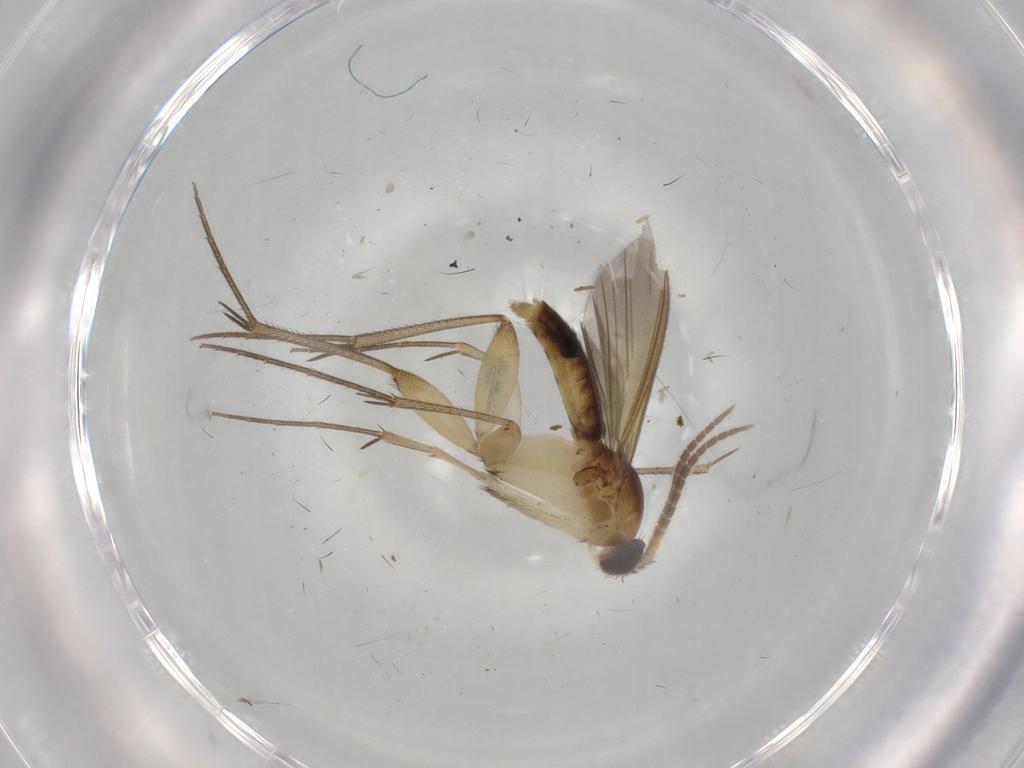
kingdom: Animalia
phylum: Arthropoda
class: Insecta
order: Diptera
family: Mycetophilidae
